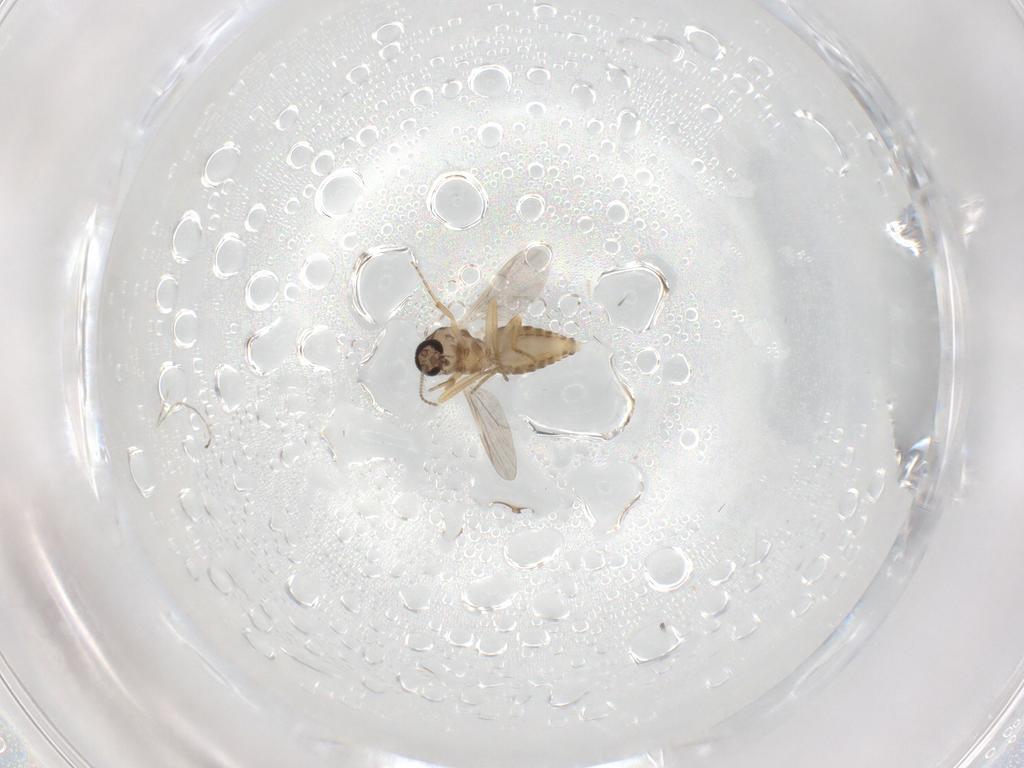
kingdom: Animalia
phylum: Arthropoda
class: Insecta
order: Diptera
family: Ceratopogonidae
